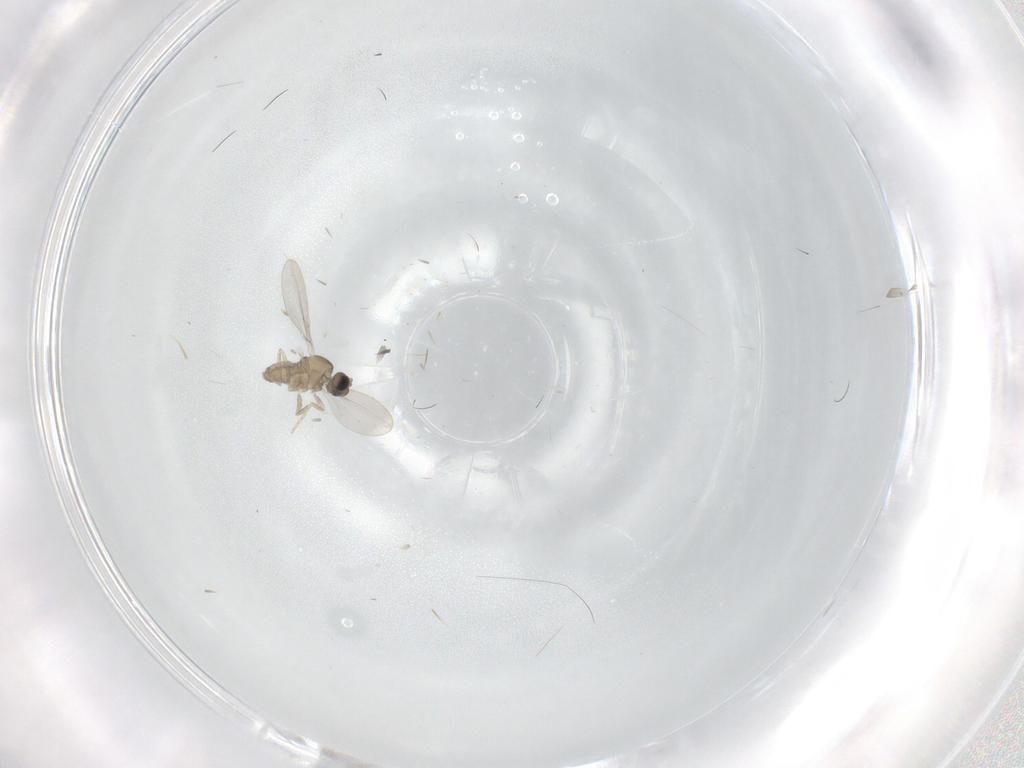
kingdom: Animalia
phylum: Arthropoda
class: Insecta
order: Diptera
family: Cecidomyiidae
